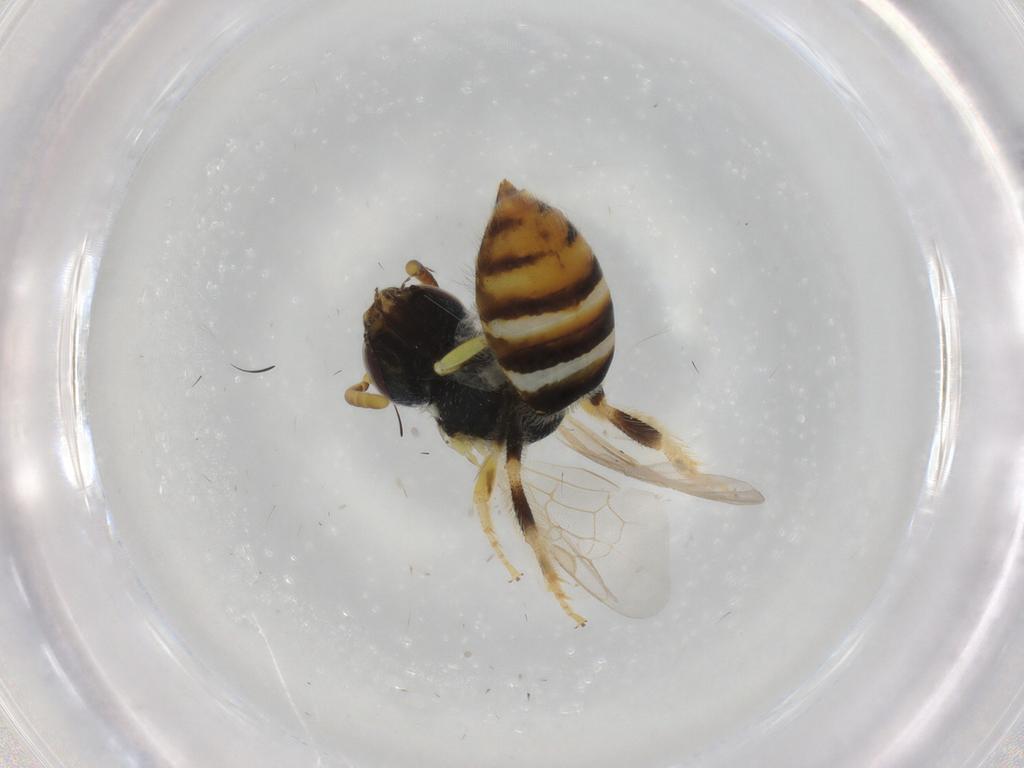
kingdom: Animalia
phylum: Arthropoda
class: Insecta
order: Hymenoptera
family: Halictidae
